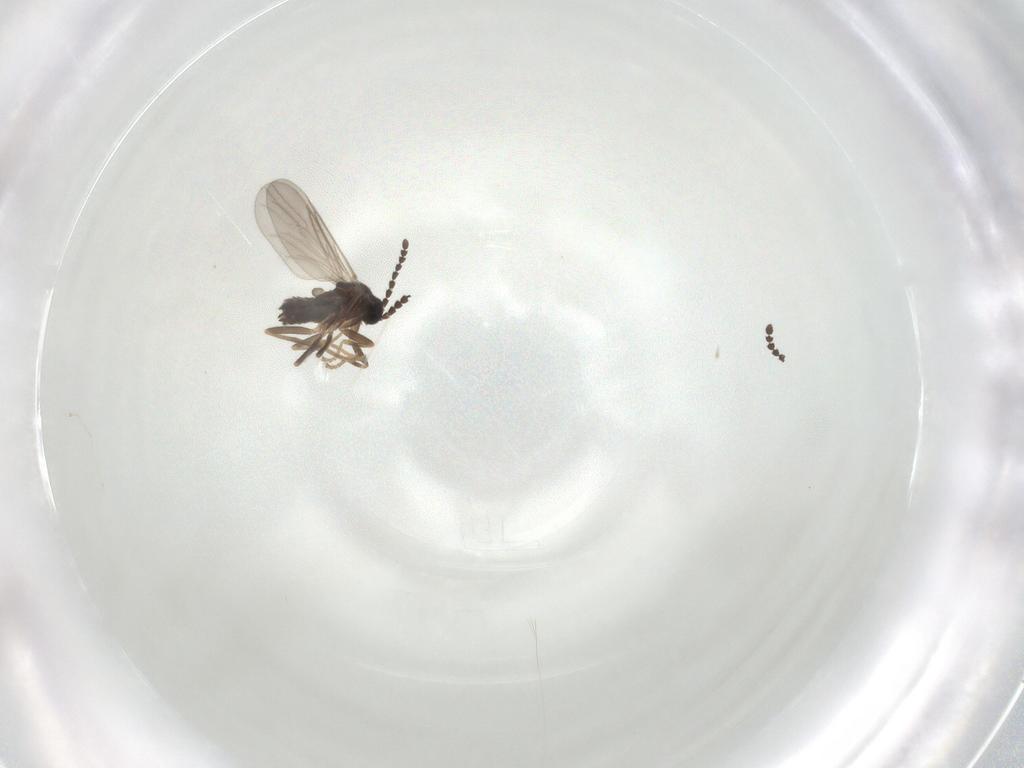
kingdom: Animalia
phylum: Arthropoda
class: Insecta
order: Diptera
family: Scatopsidae
